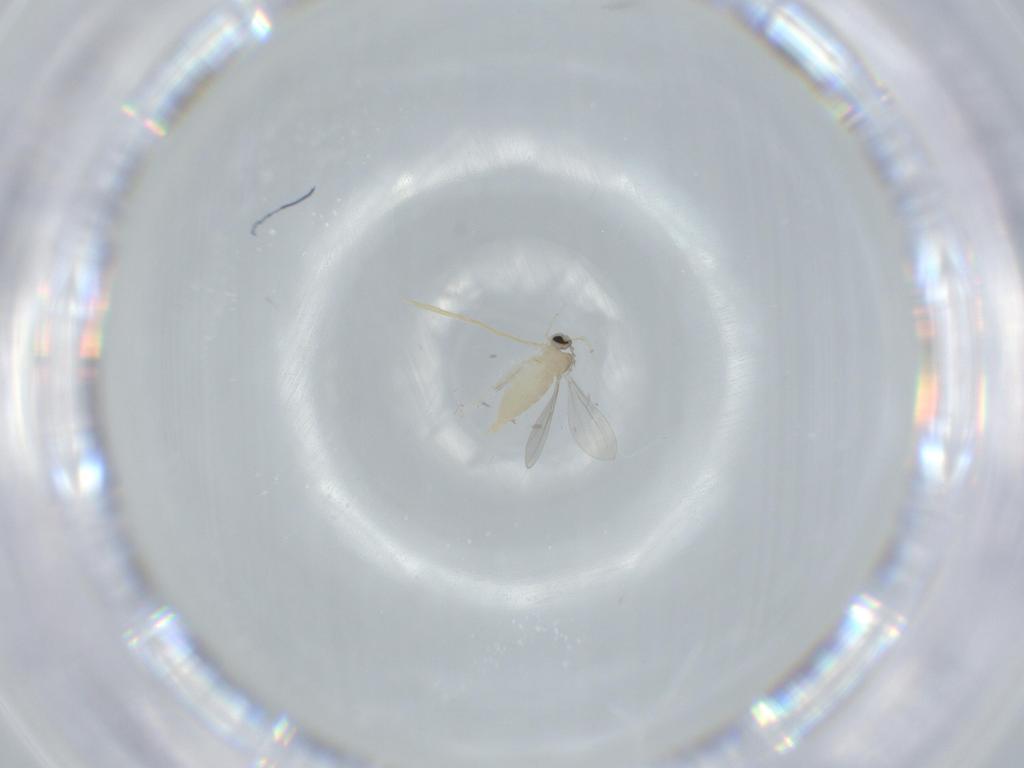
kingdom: Animalia
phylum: Arthropoda
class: Insecta
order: Diptera
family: Cecidomyiidae
